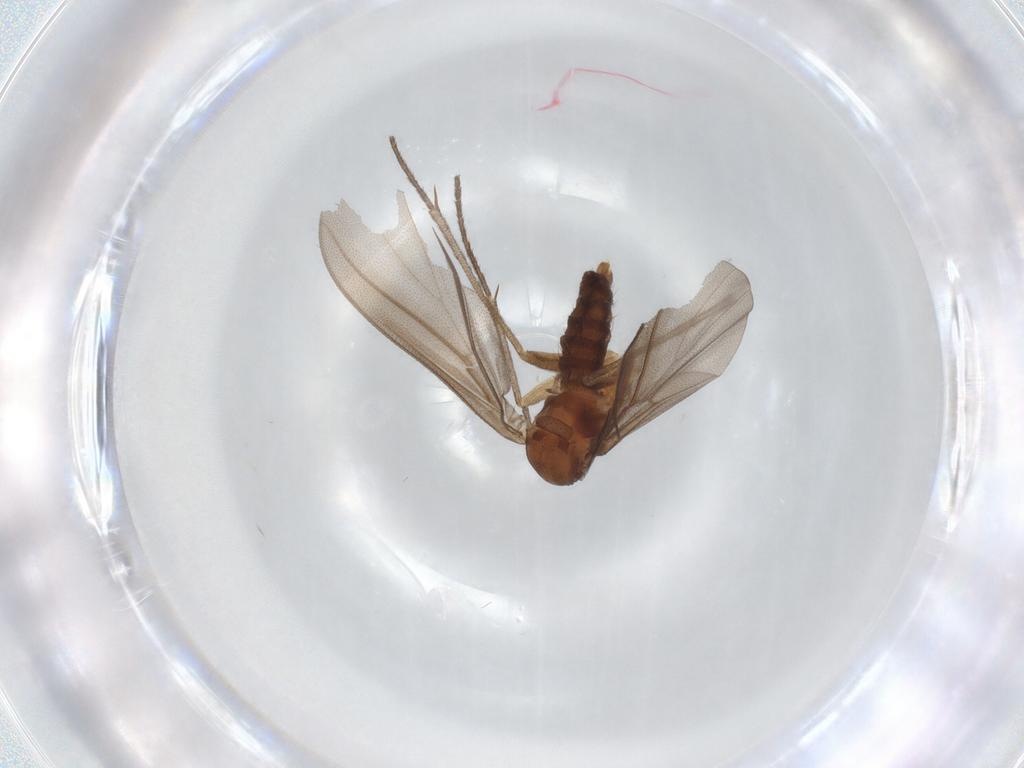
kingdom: Animalia
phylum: Arthropoda
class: Insecta
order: Diptera
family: Diadocidiidae
